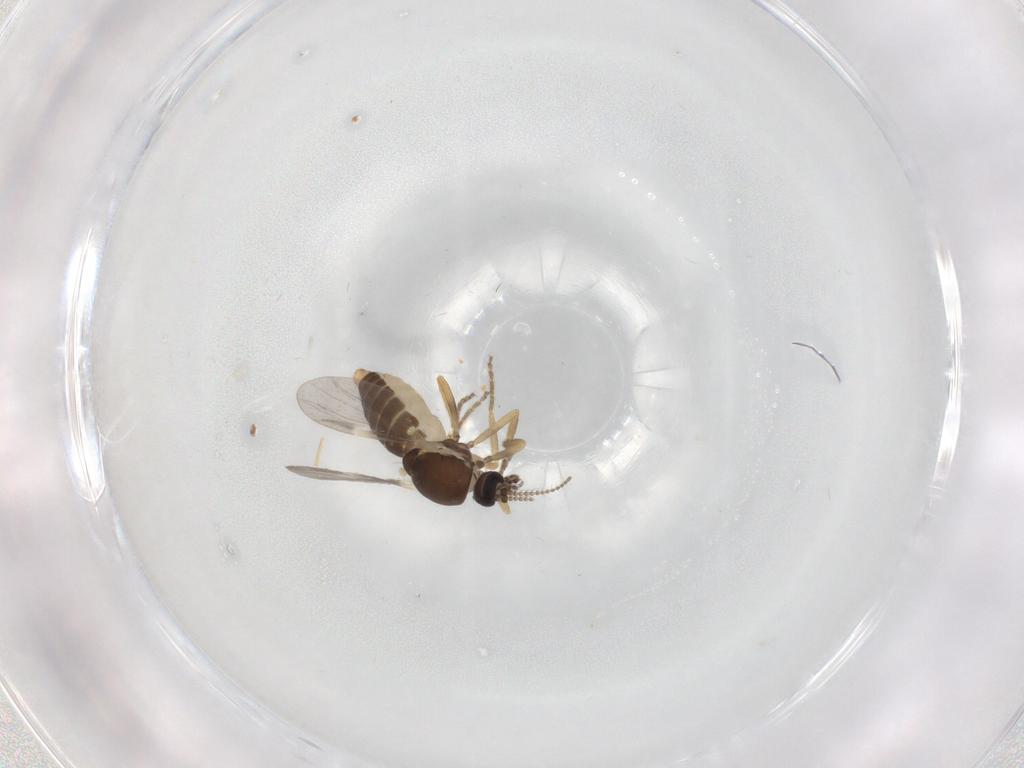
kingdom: Animalia
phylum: Arthropoda
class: Insecta
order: Diptera
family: Ceratopogonidae
